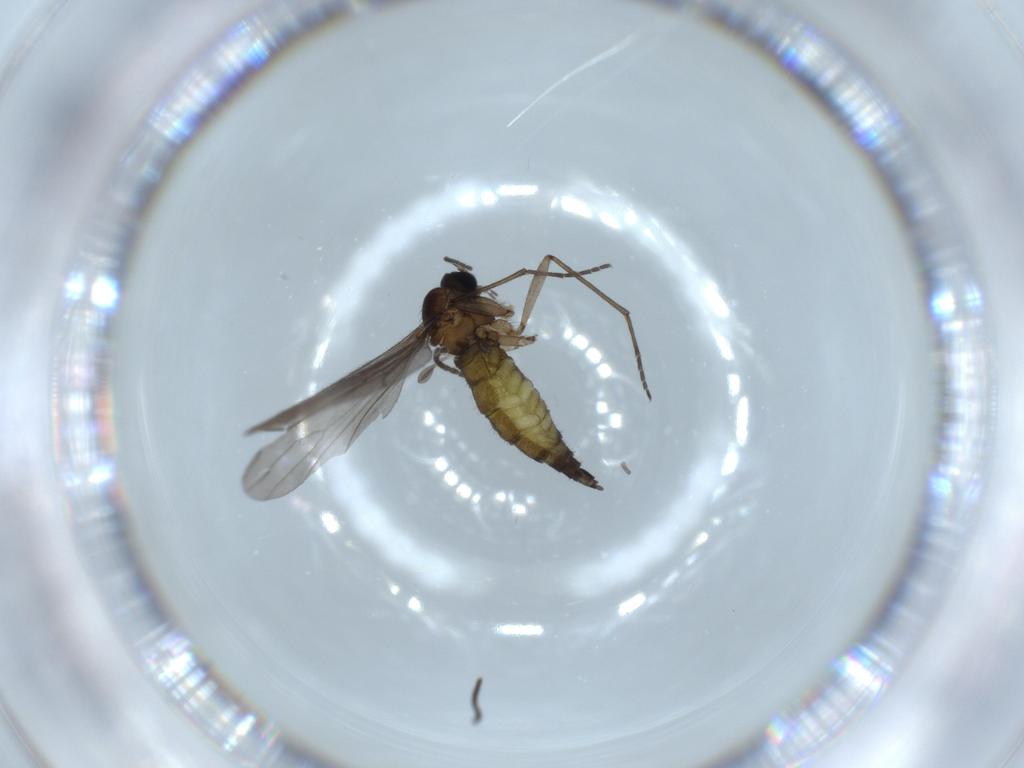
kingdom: Animalia
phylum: Arthropoda
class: Insecta
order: Diptera
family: Sciaridae
